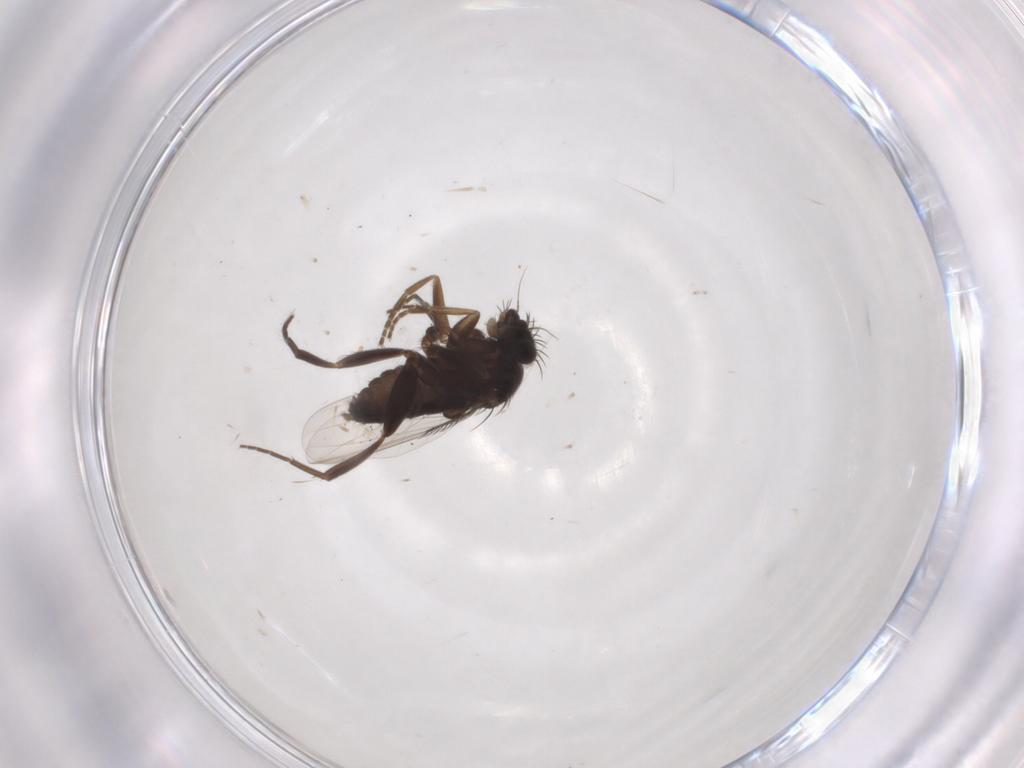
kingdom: Animalia
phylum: Arthropoda
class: Insecta
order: Diptera
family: Phoridae
